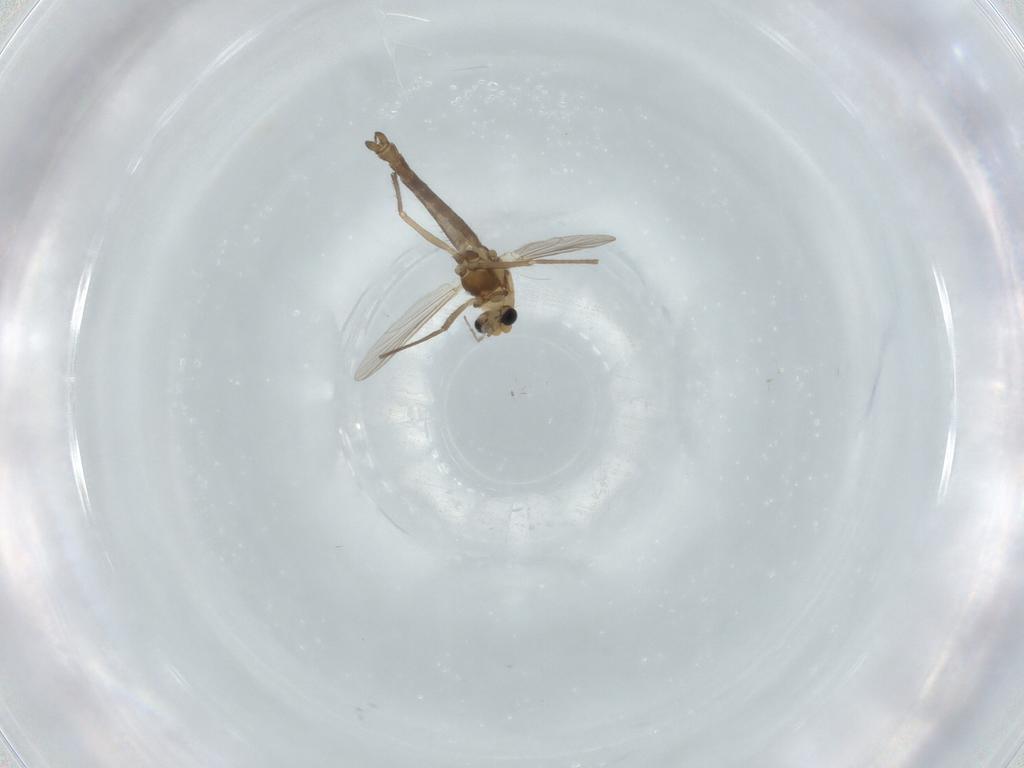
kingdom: Animalia
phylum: Arthropoda
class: Insecta
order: Diptera
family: Chironomidae
